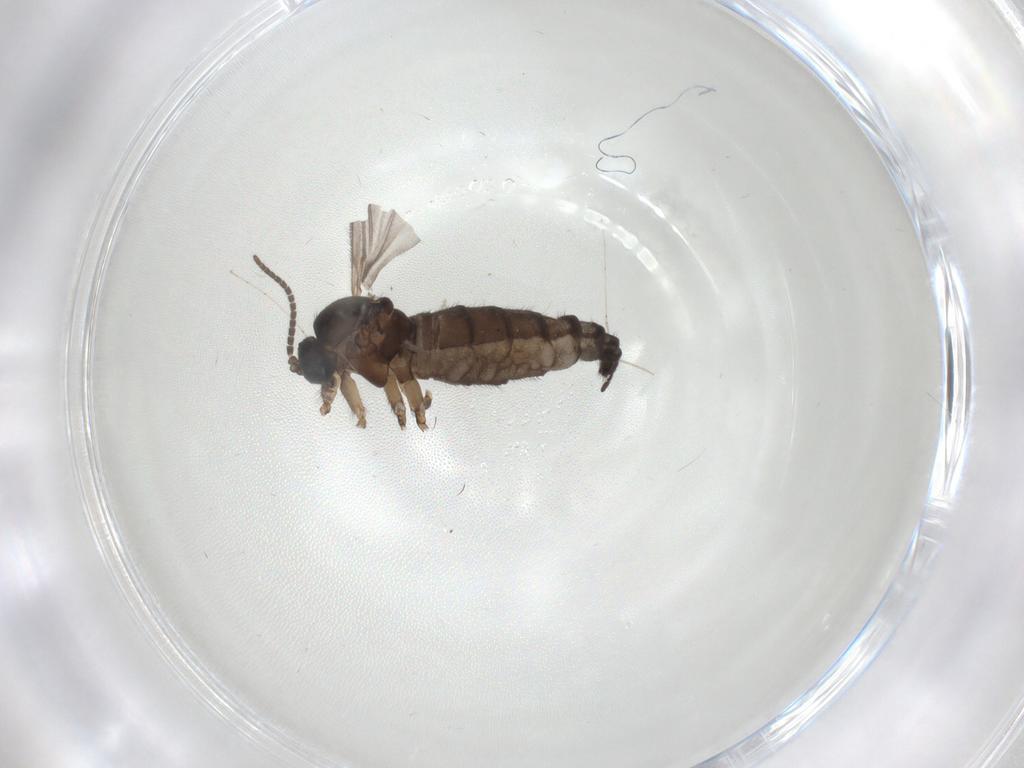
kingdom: Animalia
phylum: Arthropoda
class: Insecta
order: Diptera
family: Sciaridae
